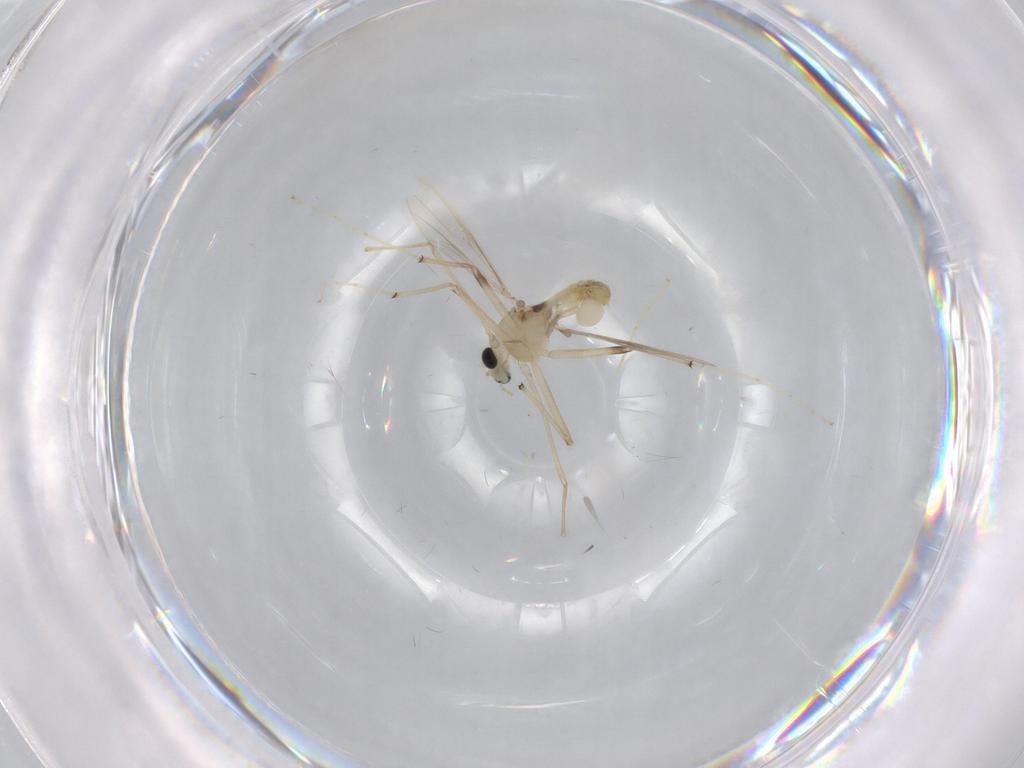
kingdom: Animalia
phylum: Arthropoda
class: Insecta
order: Diptera
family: Chironomidae
